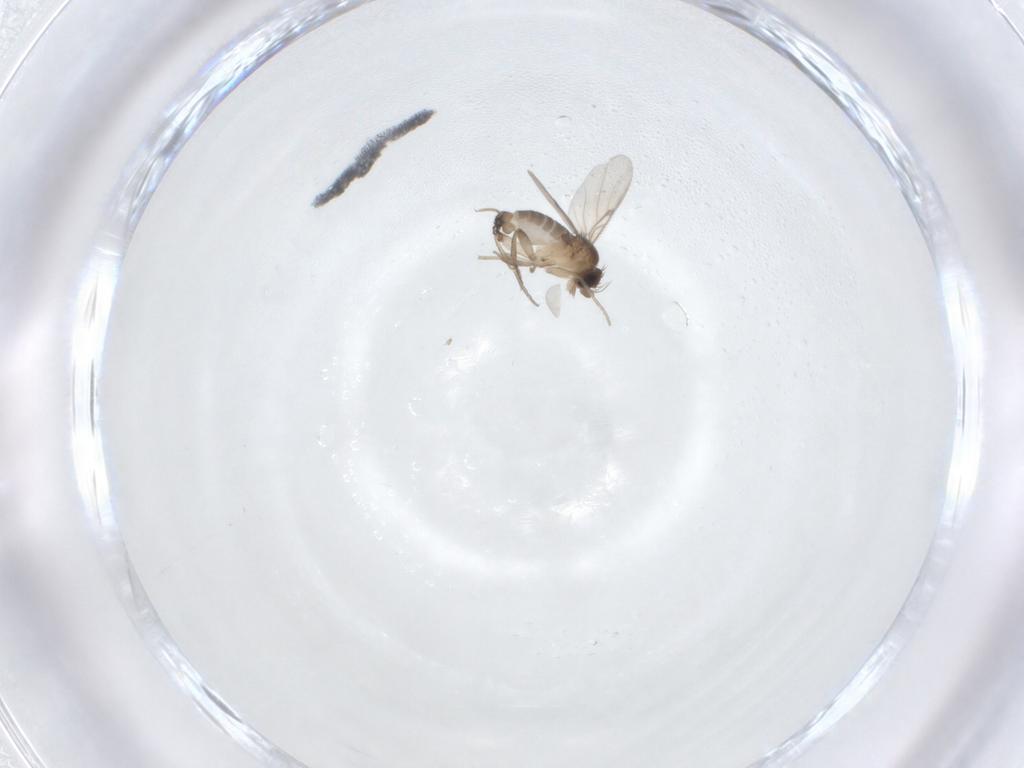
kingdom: Animalia
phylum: Arthropoda
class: Insecta
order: Diptera
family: Phoridae
